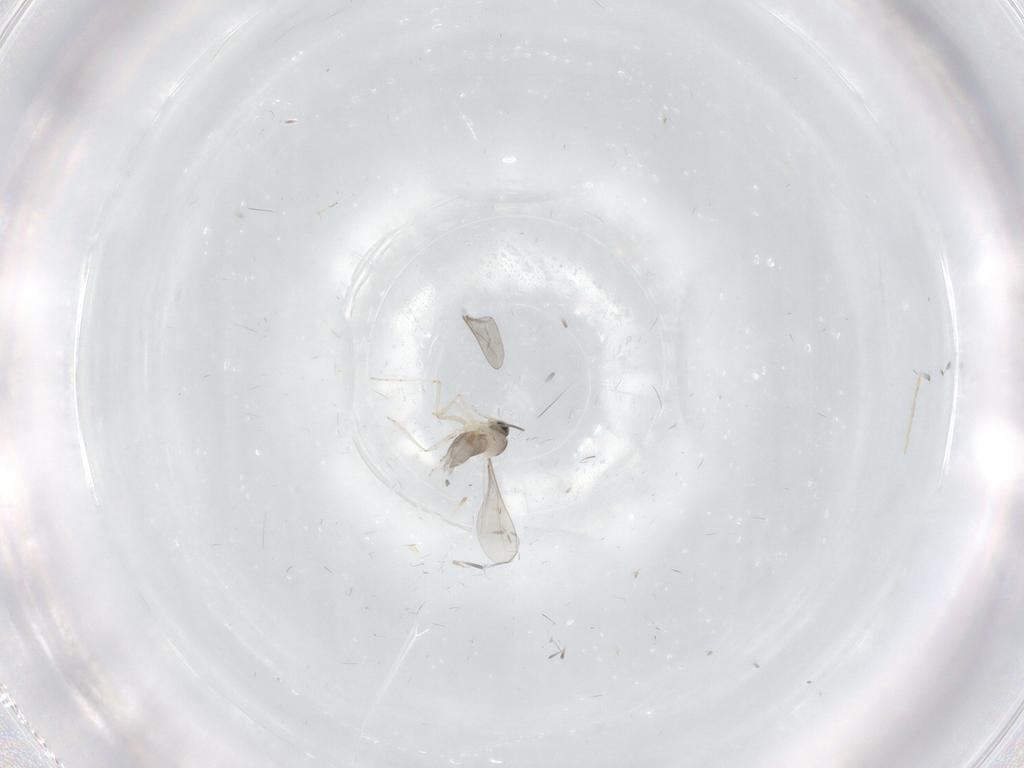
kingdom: Animalia
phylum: Arthropoda
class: Insecta
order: Diptera
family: Cecidomyiidae
